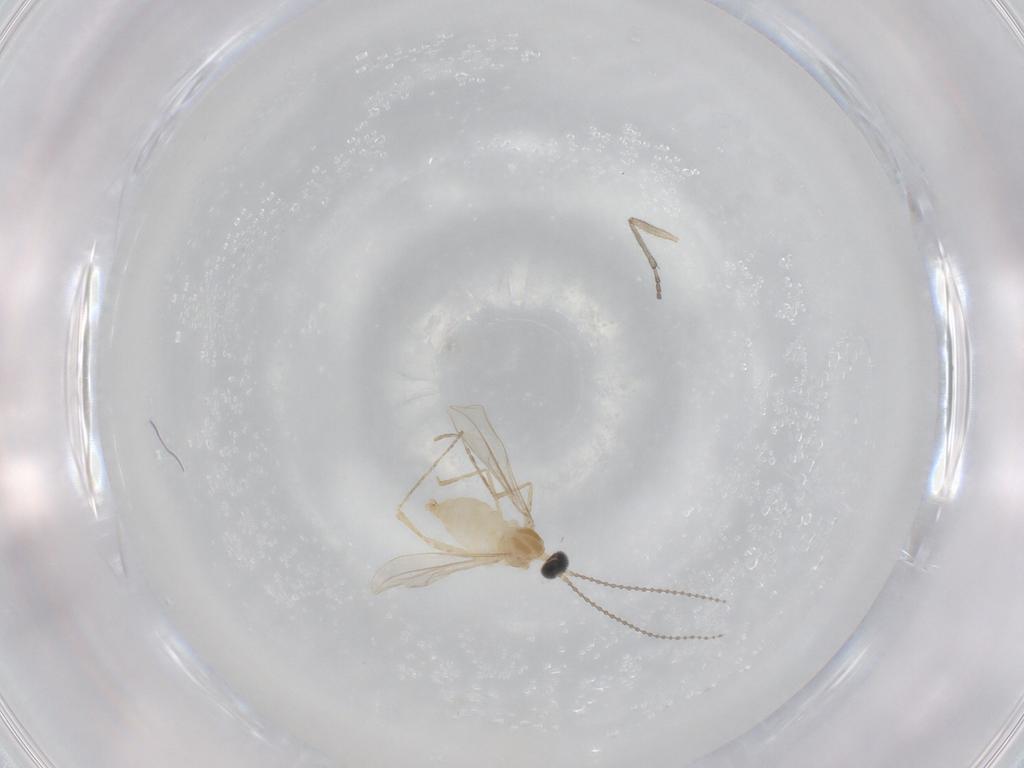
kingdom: Animalia
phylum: Arthropoda
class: Insecta
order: Diptera
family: Cecidomyiidae
